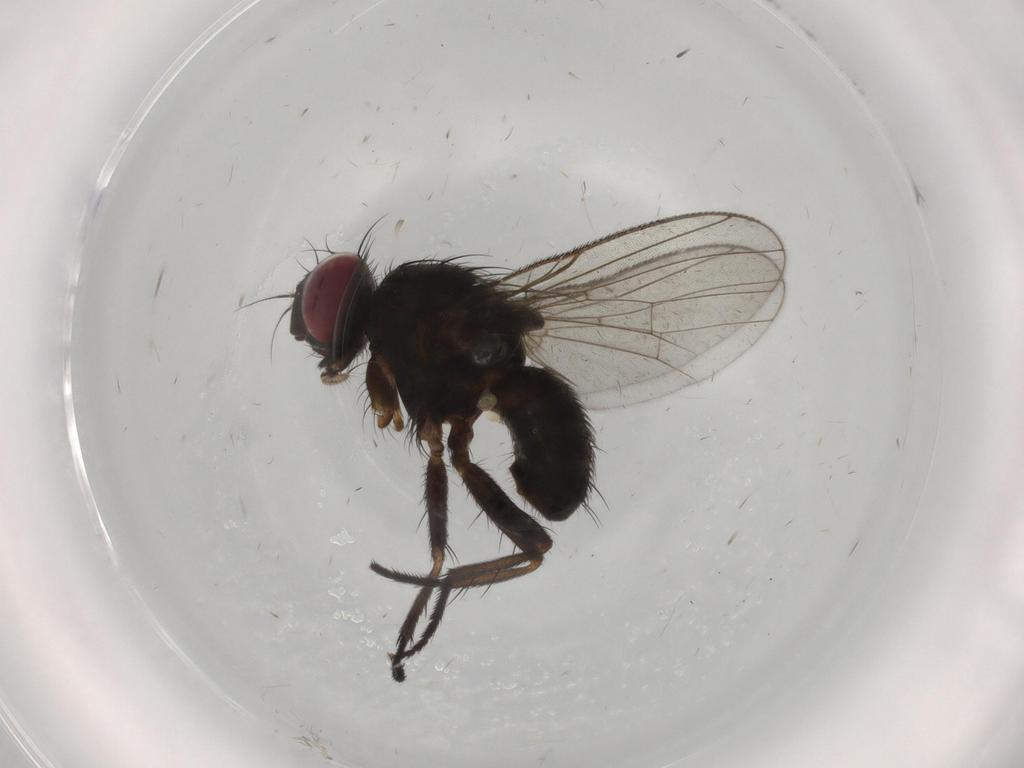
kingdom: Animalia
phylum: Arthropoda
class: Insecta
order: Diptera
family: Muscidae
